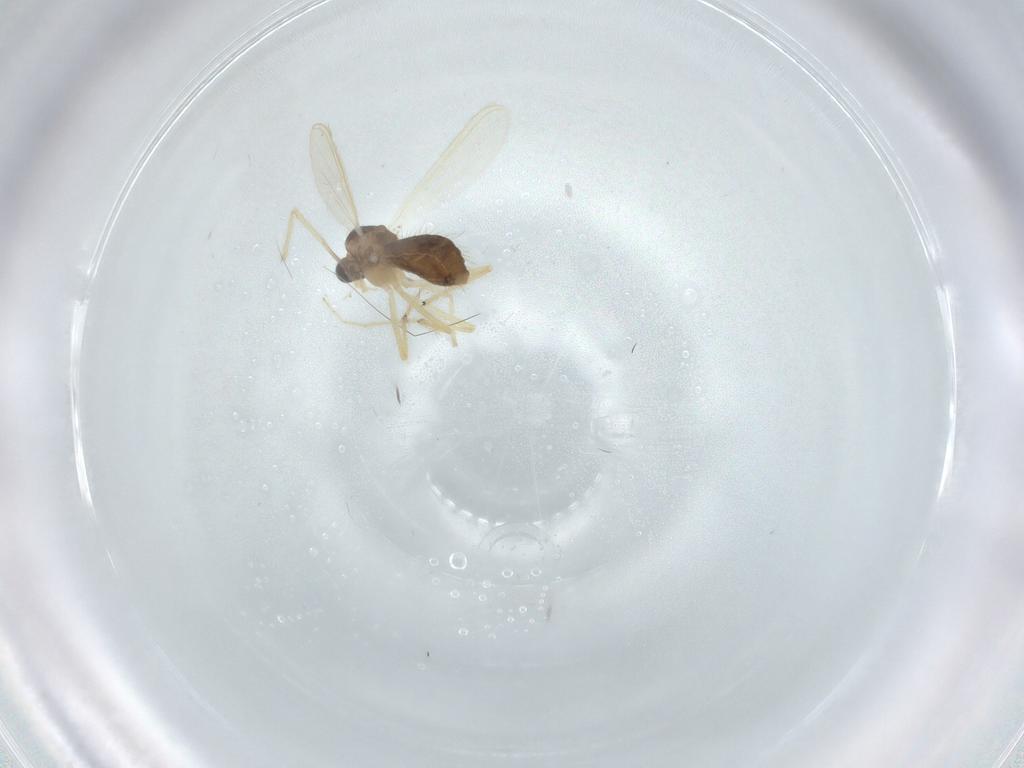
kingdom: Animalia
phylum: Arthropoda
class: Insecta
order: Diptera
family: Chironomidae
